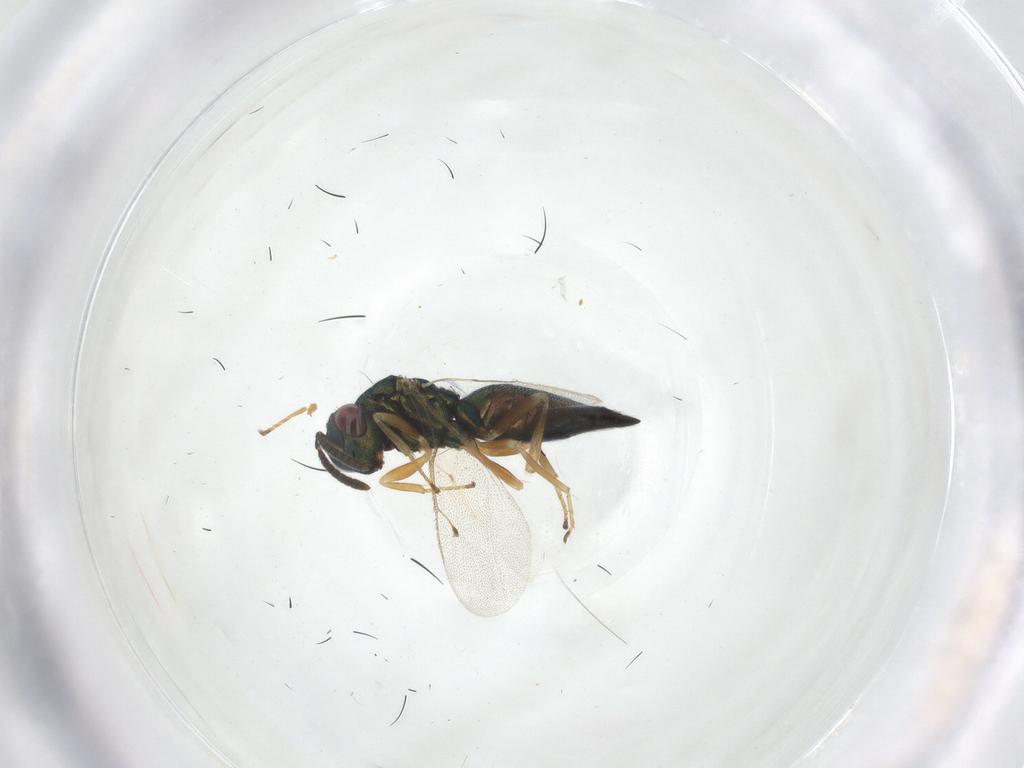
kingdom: Animalia
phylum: Arthropoda
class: Insecta
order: Hymenoptera
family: Pteromalidae
